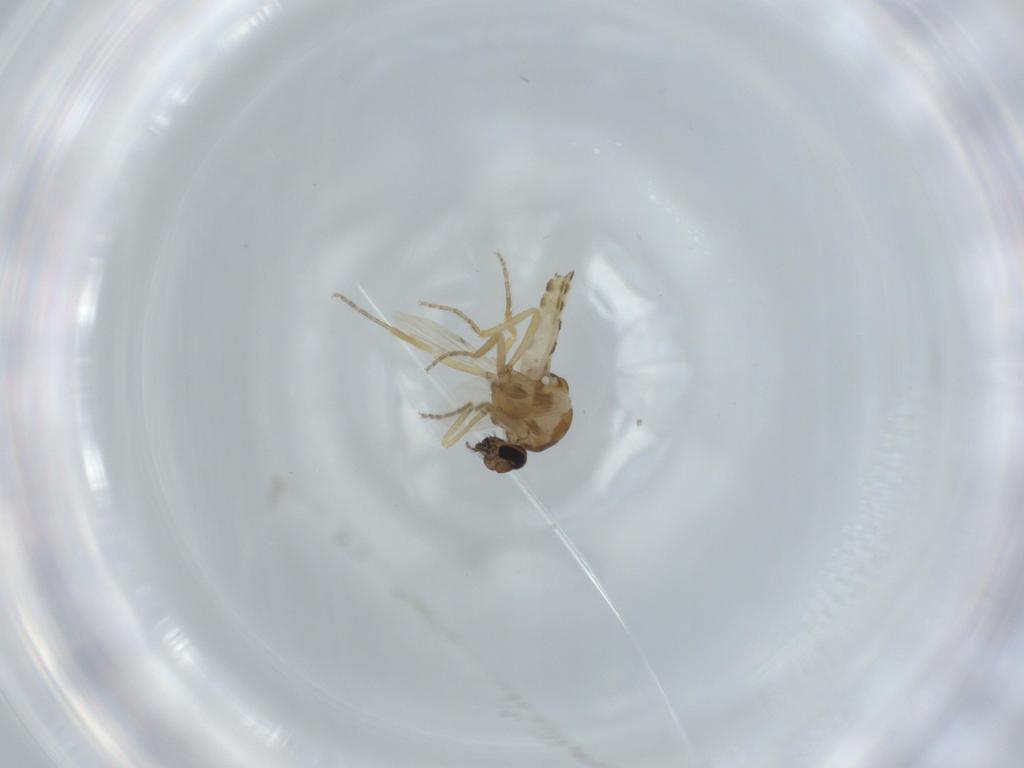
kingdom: Animalia
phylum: Arthropoda
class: Insecta
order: Diptera
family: Ceratopogonidae
